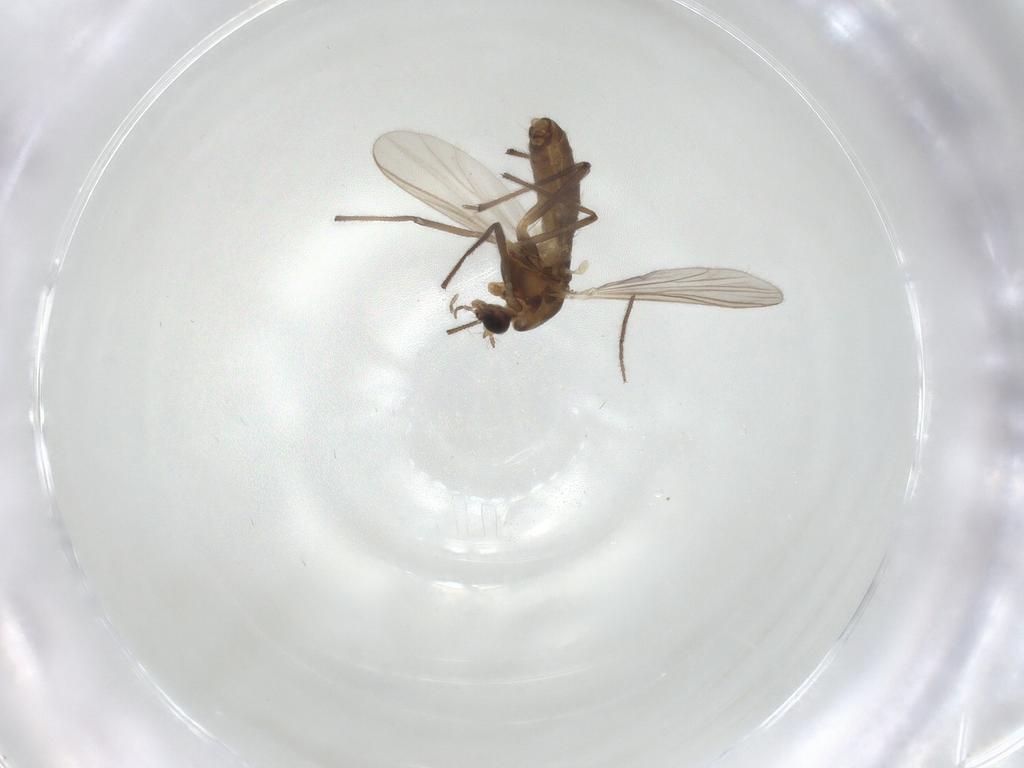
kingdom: Animalia
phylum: Arthropoda
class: Insecta
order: Diptera
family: Chironomidae
